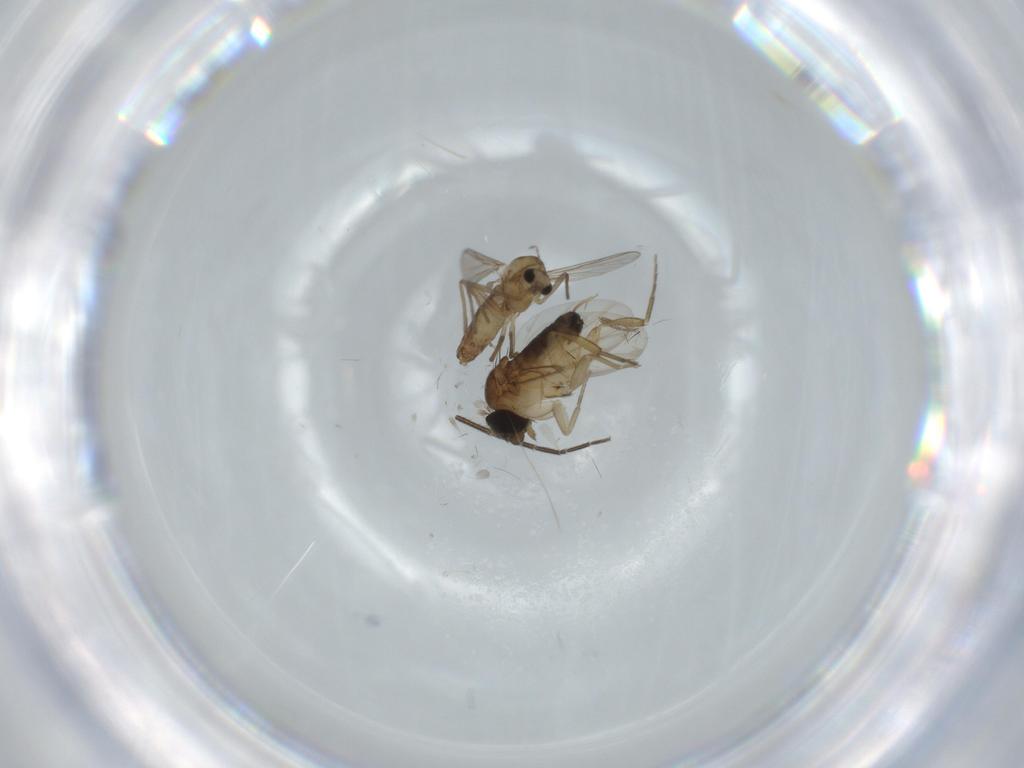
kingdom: Animalia
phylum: Arthropoda
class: Insecta
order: Diptera
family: Phoridae
